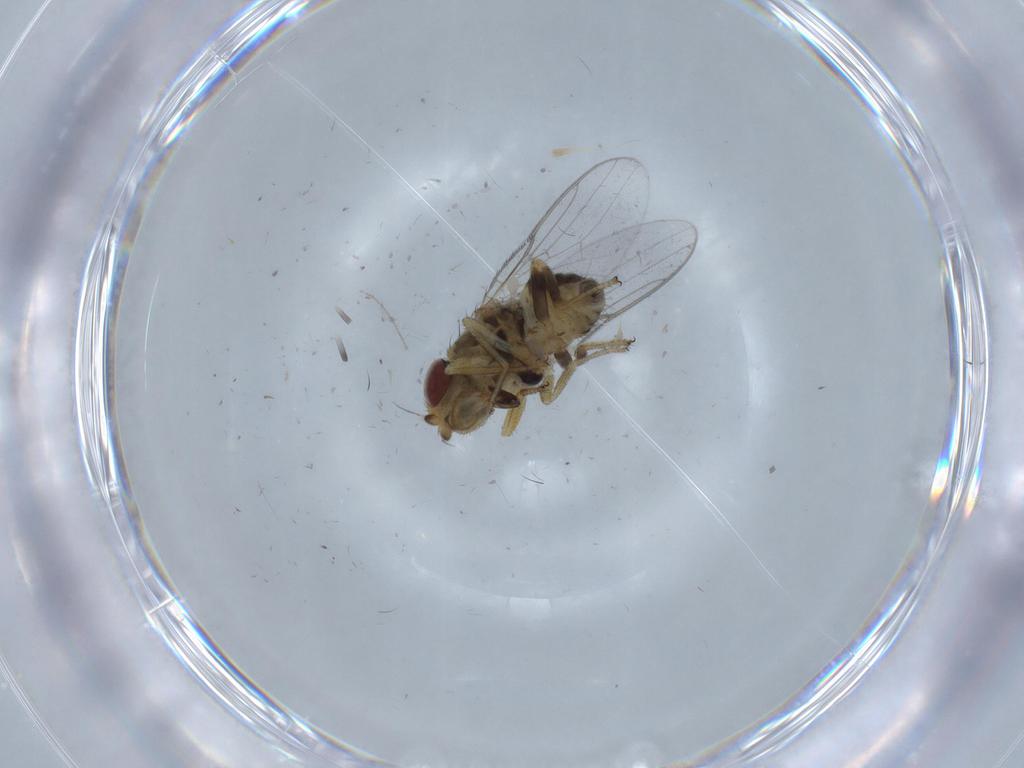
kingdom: Animalia
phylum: Arthropoda
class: Insecta
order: Diptera
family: Chloropidae
